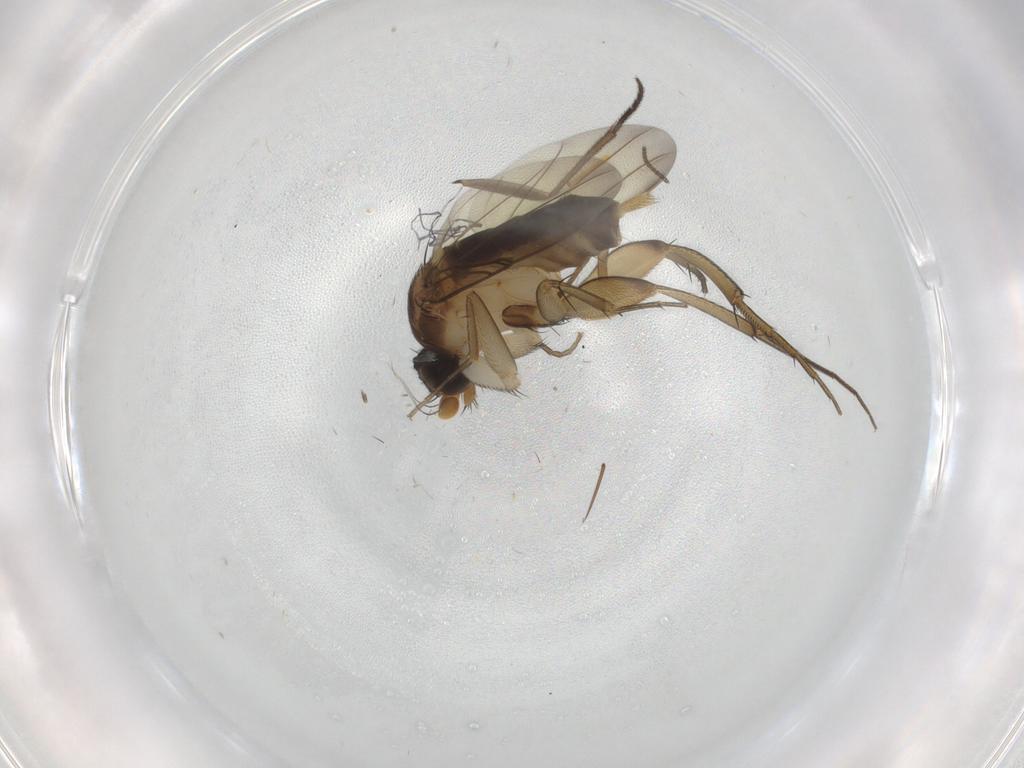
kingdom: Animalia
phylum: Arthropoda
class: Insecta
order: Diptera
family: Phoridae
